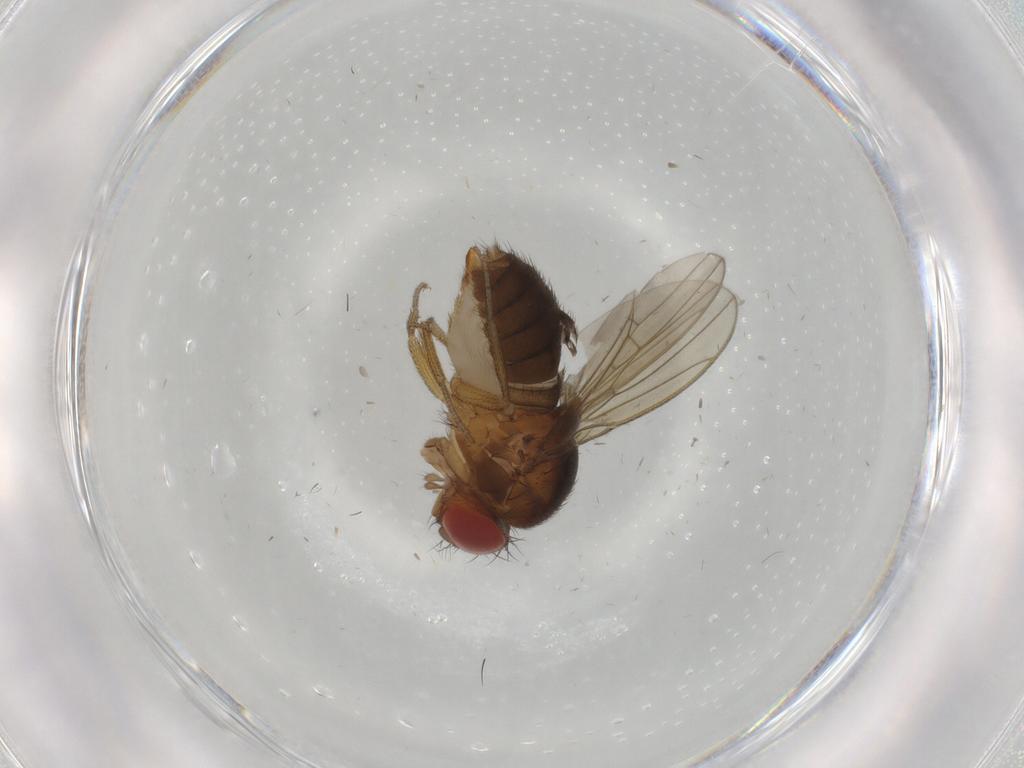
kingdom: Animalia
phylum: Arthropoda
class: Insecta
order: Diptera
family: Drosophilidae
